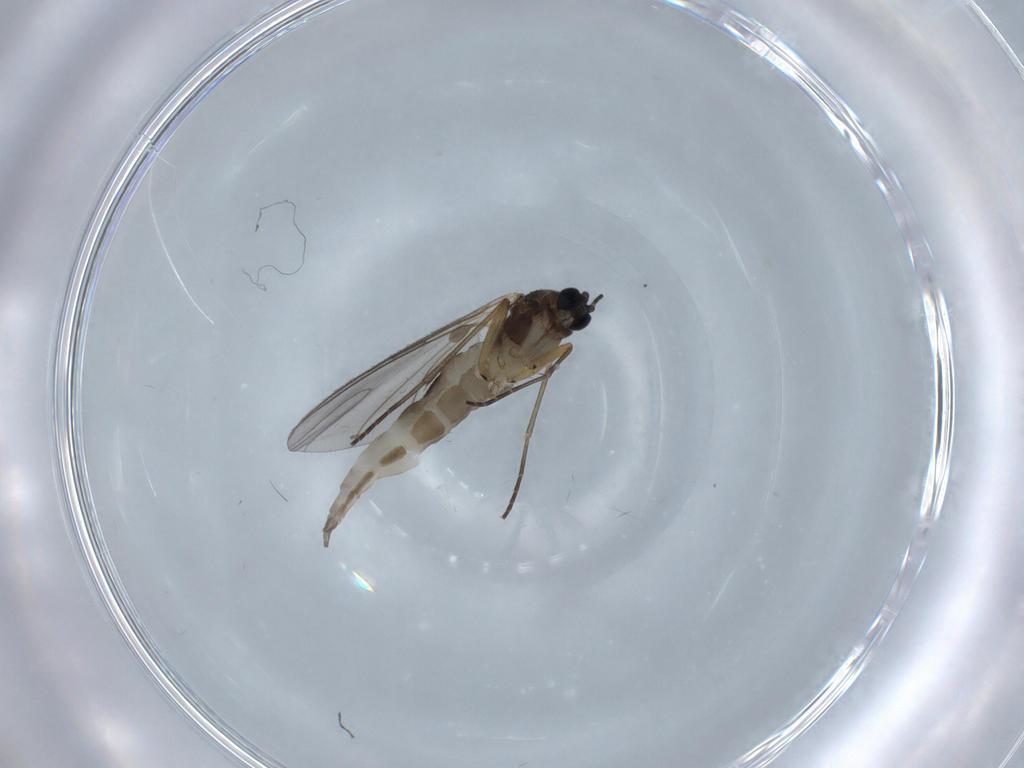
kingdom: Animalia
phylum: Arthropoda
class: Insecta
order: Diptera
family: Sciaridae
